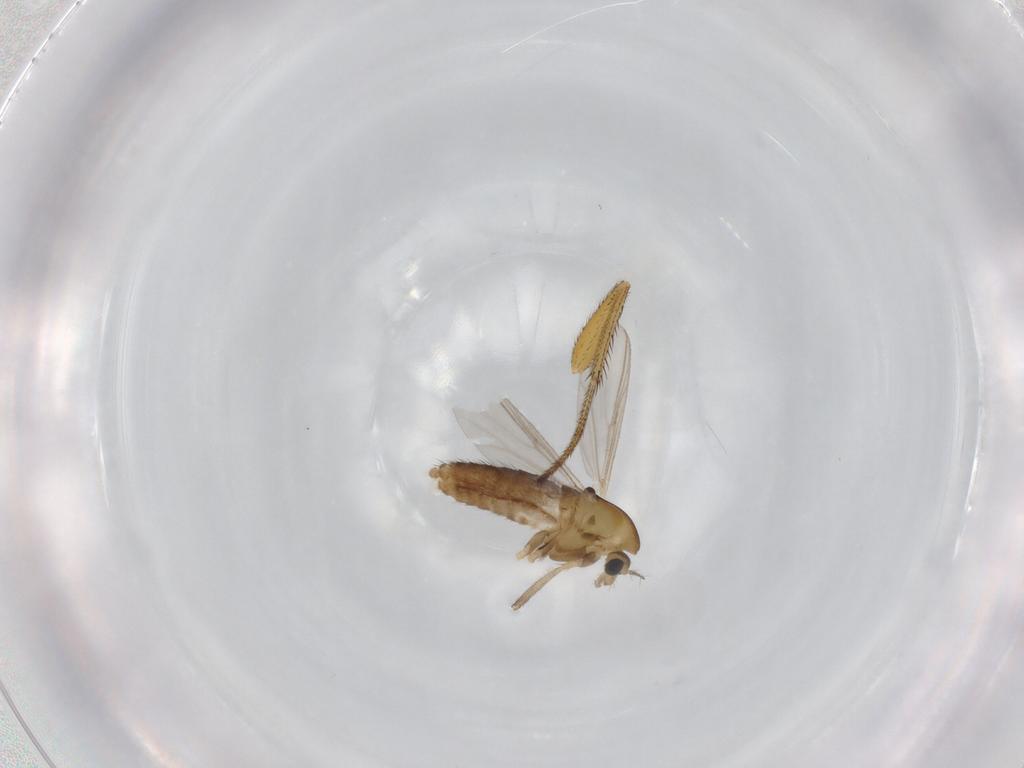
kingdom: Animalia
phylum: Arthropoda
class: Insecta
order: Diptera
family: Chironomidae
